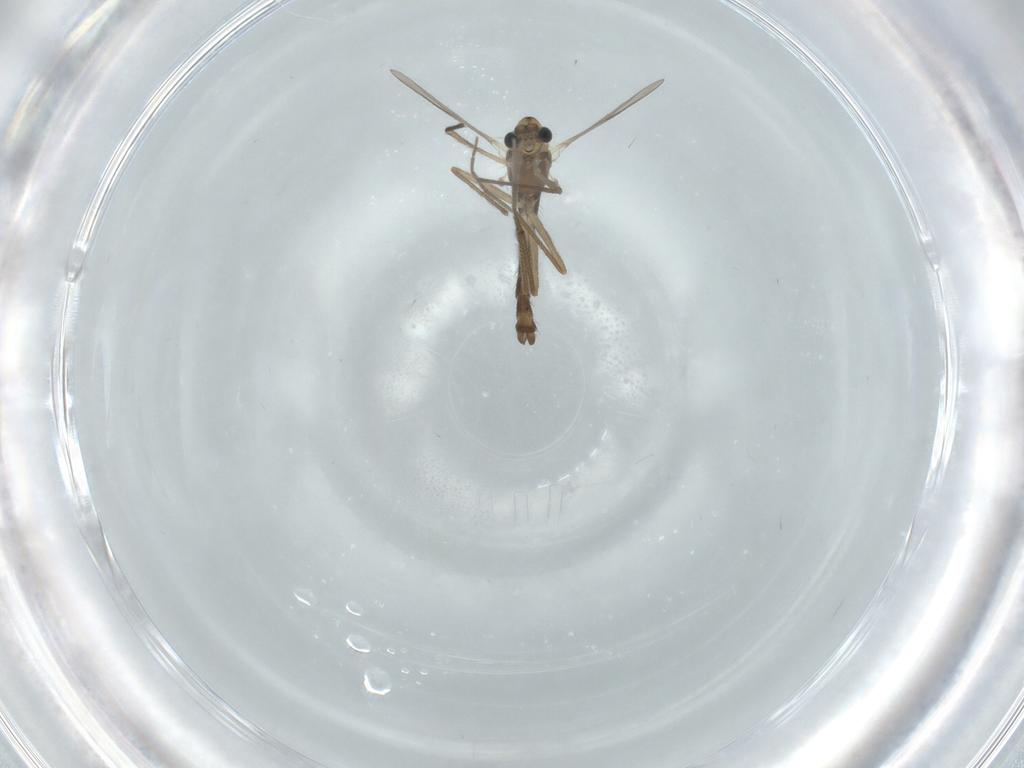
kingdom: Animalia
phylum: Arthropoda
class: Insecta
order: Diptera
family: Chironomidae
